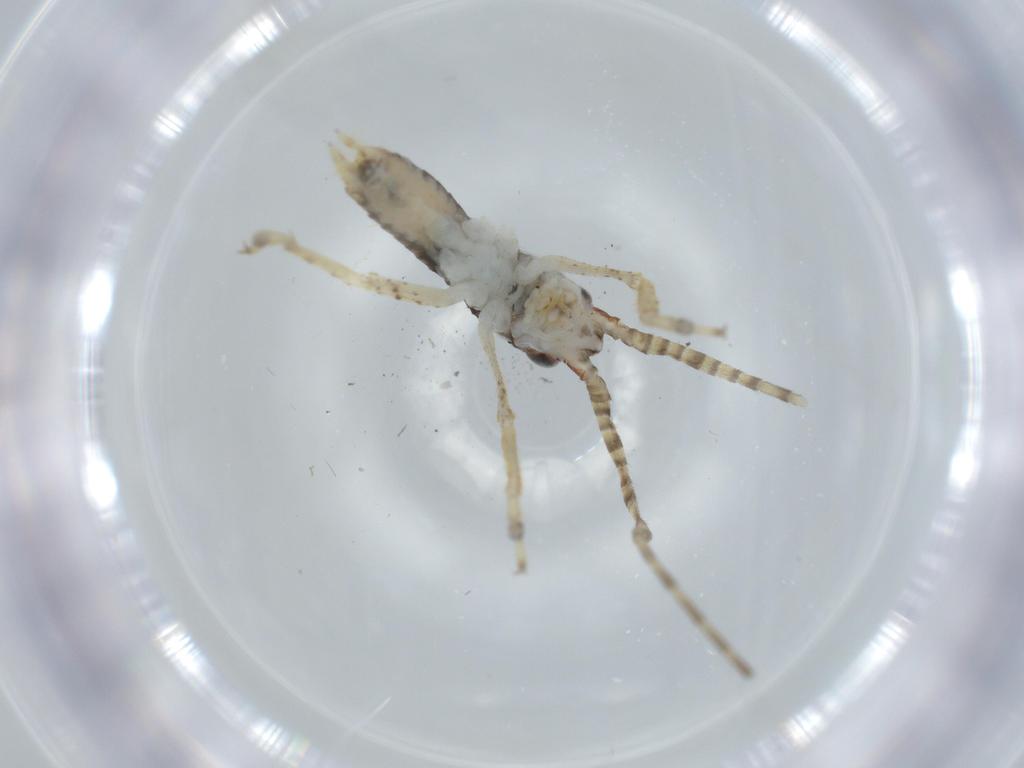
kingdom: Animalia
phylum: Arthropoda
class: Insecta
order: Orthoptera
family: Gryllidae
